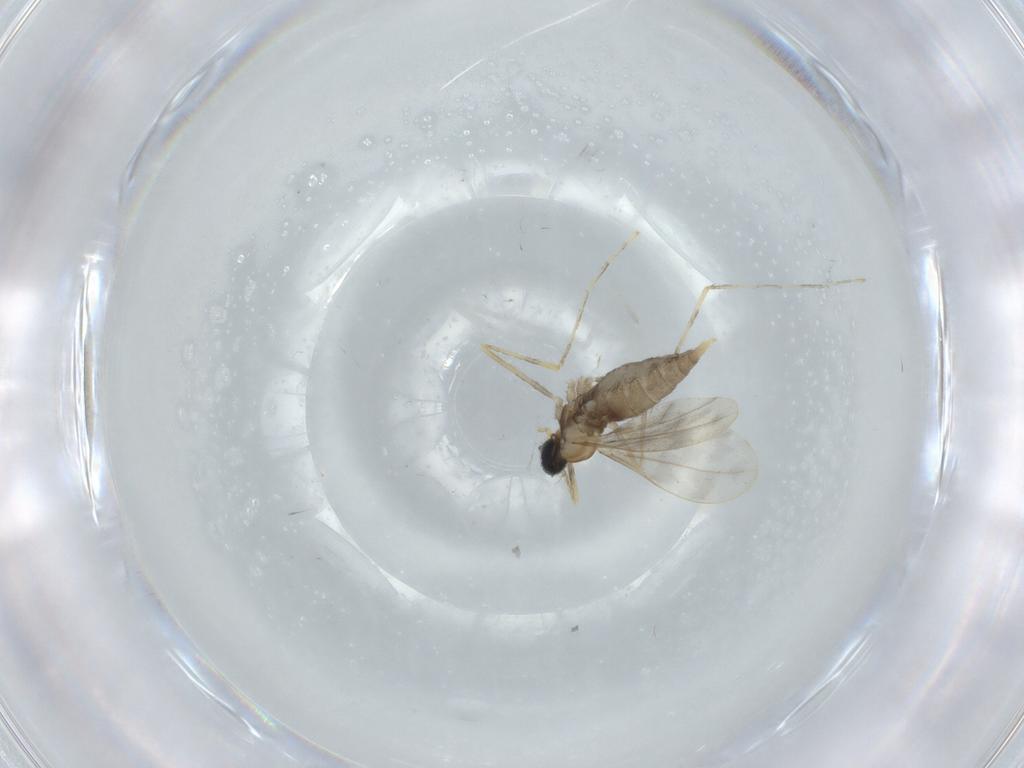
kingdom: Animalia
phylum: Arthropoda
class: Insecta
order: Diptera
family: Cecidomyiidae
